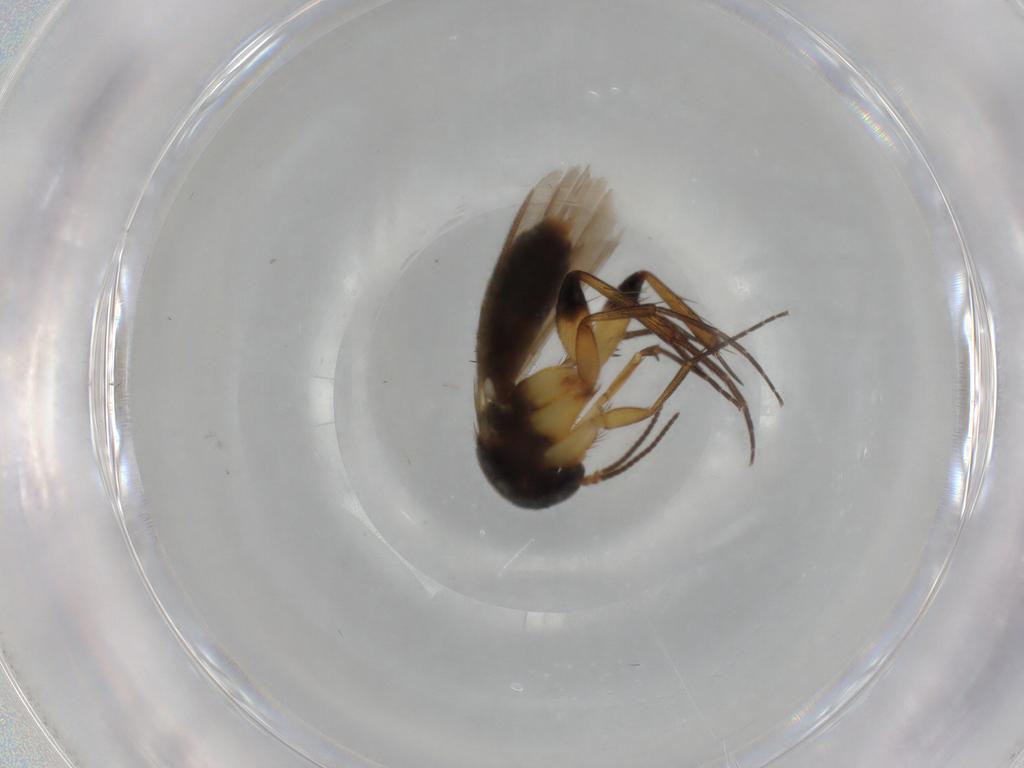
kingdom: Animalia
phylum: Arthropoda
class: Insecta
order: Diptera
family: Mycetophilidae
